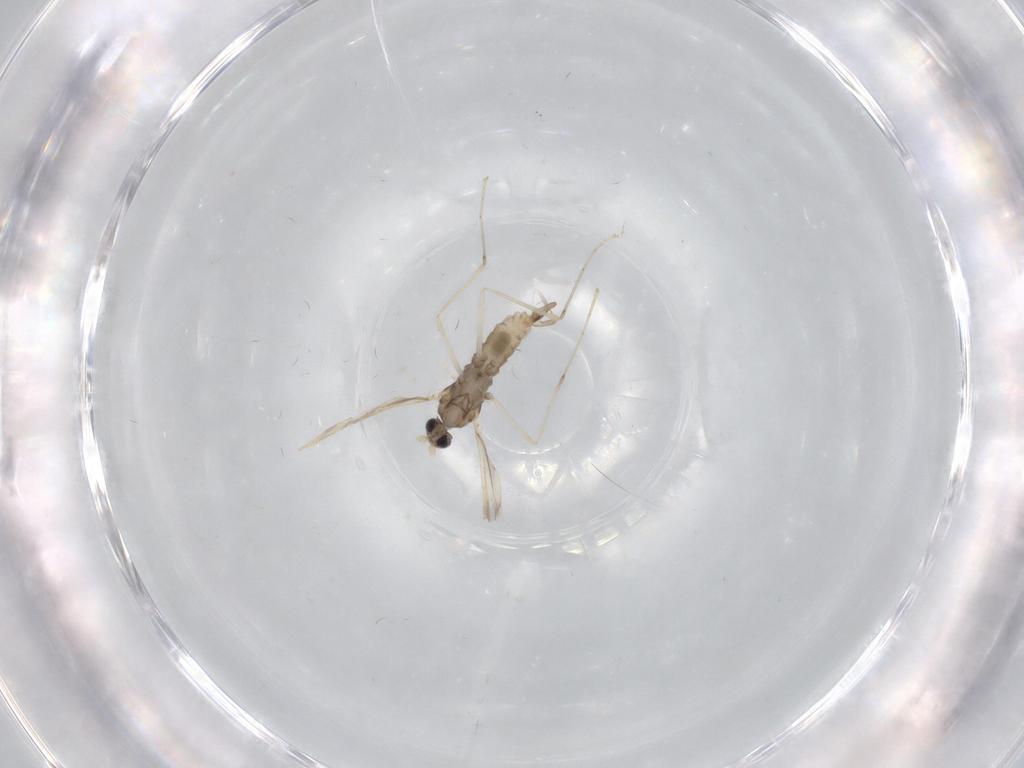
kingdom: Animalia
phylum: Arthropoda
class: Insecta
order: Diptera
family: Cecidomyiidae
